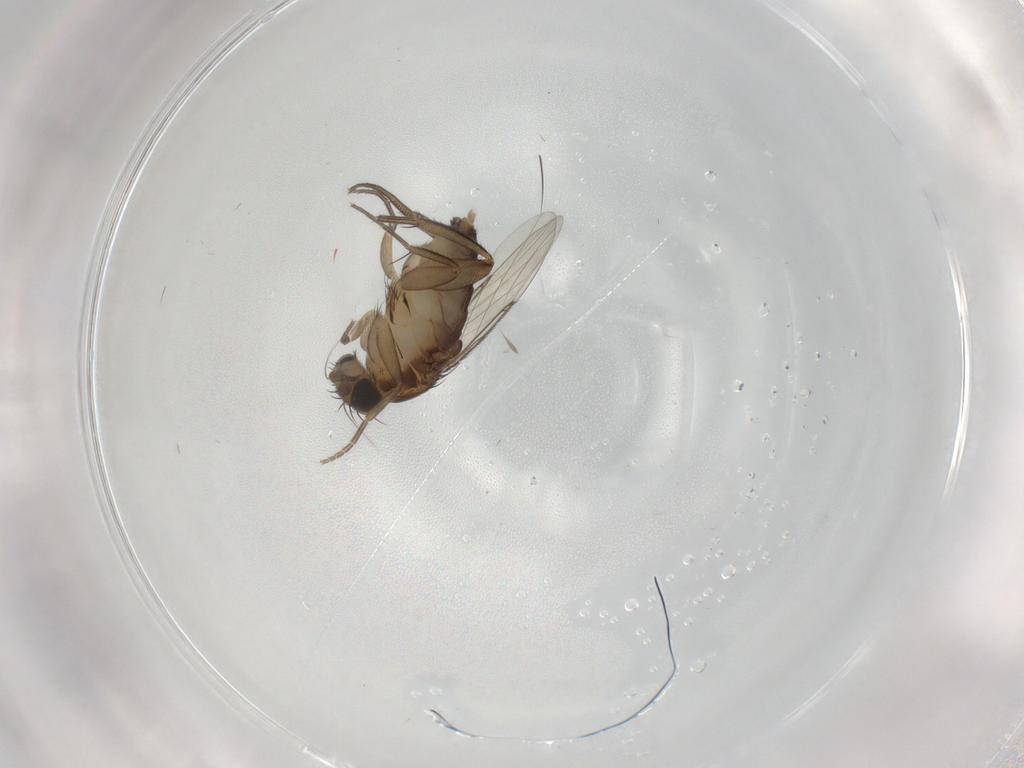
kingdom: Animalia
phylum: Arthropoda
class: Insecta
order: Diptera
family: Phoridae
